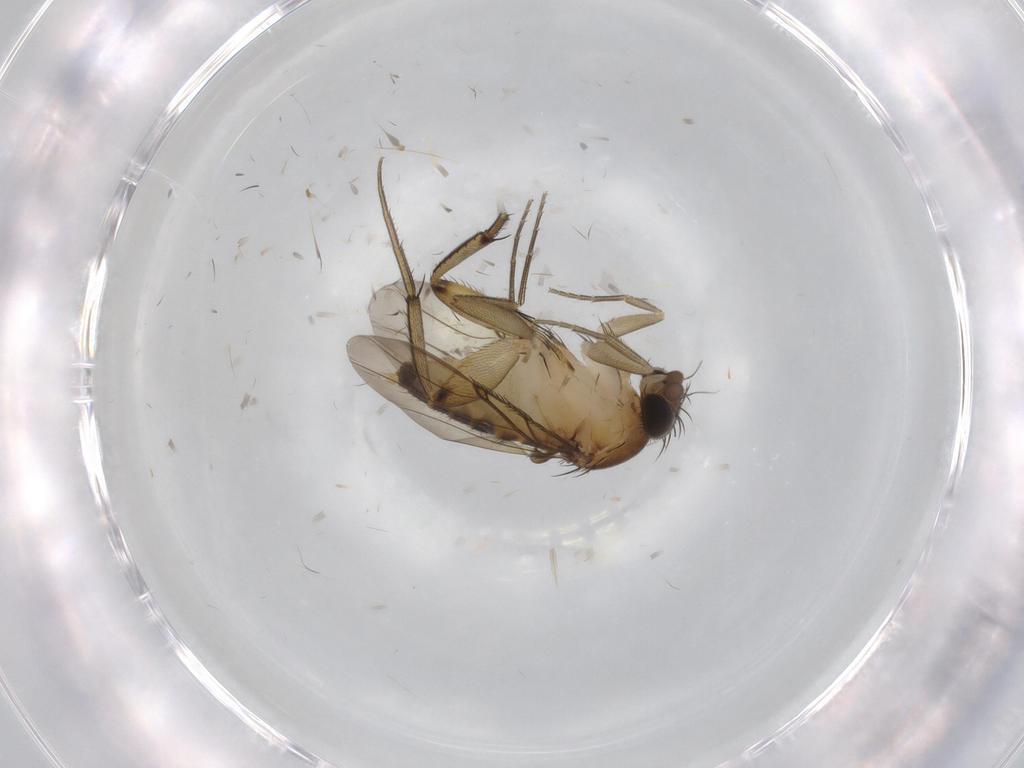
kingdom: Animalia
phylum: Arthropoda
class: Insecta
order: Diptera
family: Phoridae
